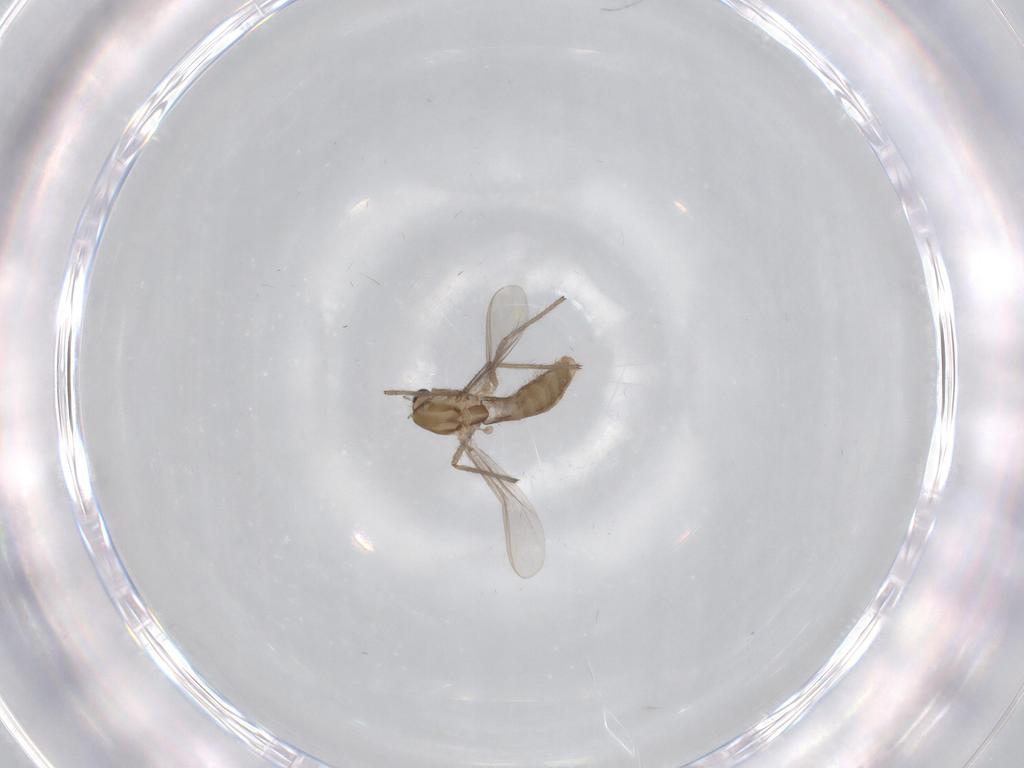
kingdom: Animalia
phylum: Arthropoda
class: Insecta
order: Diptera
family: Chironomidae
